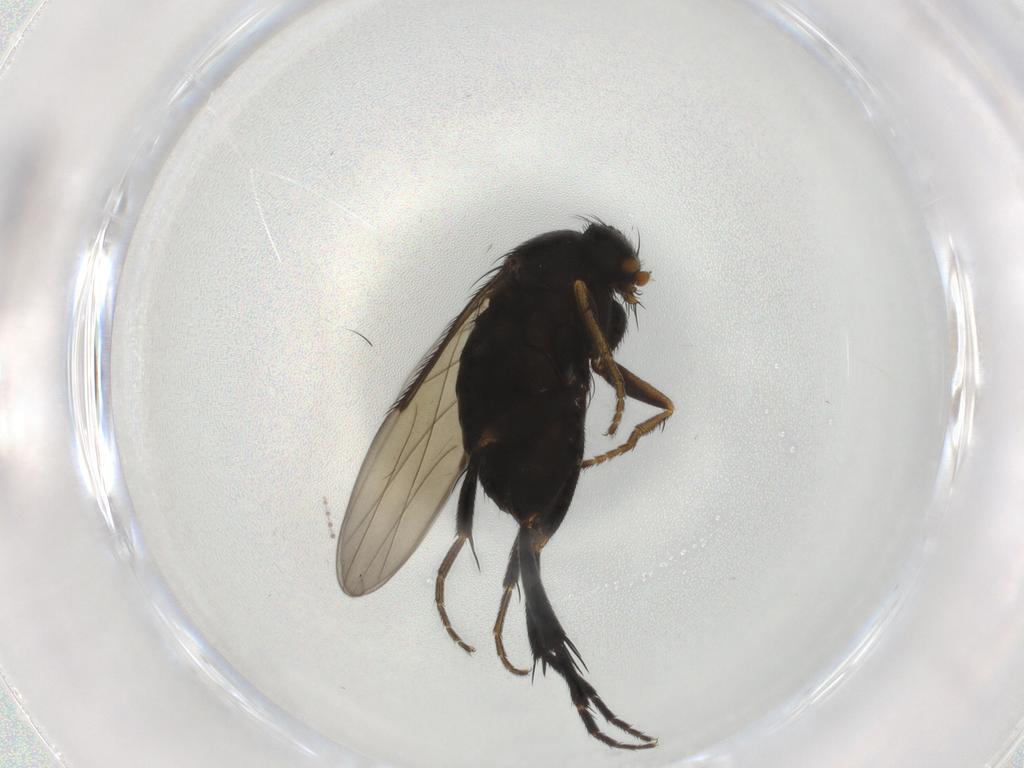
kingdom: Animalia
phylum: Arthropoda
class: Insecta
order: Diptera
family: Phoridae
